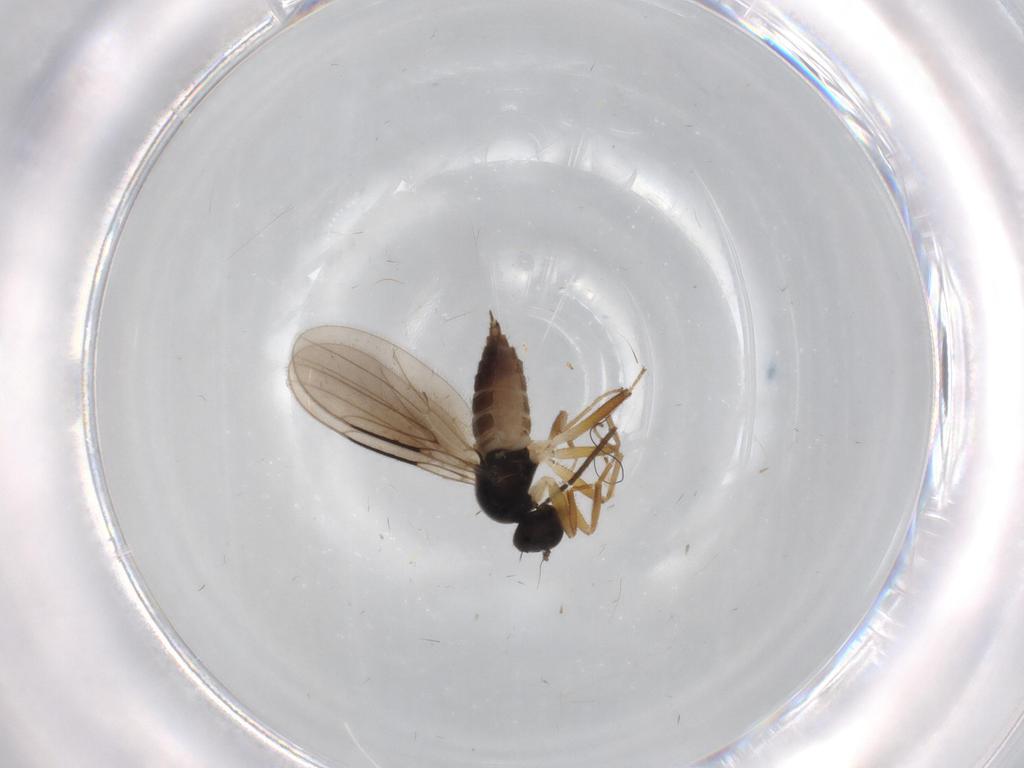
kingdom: Animalia
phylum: Arthropoda
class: Insecta
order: Diptera
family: Hybotidae
